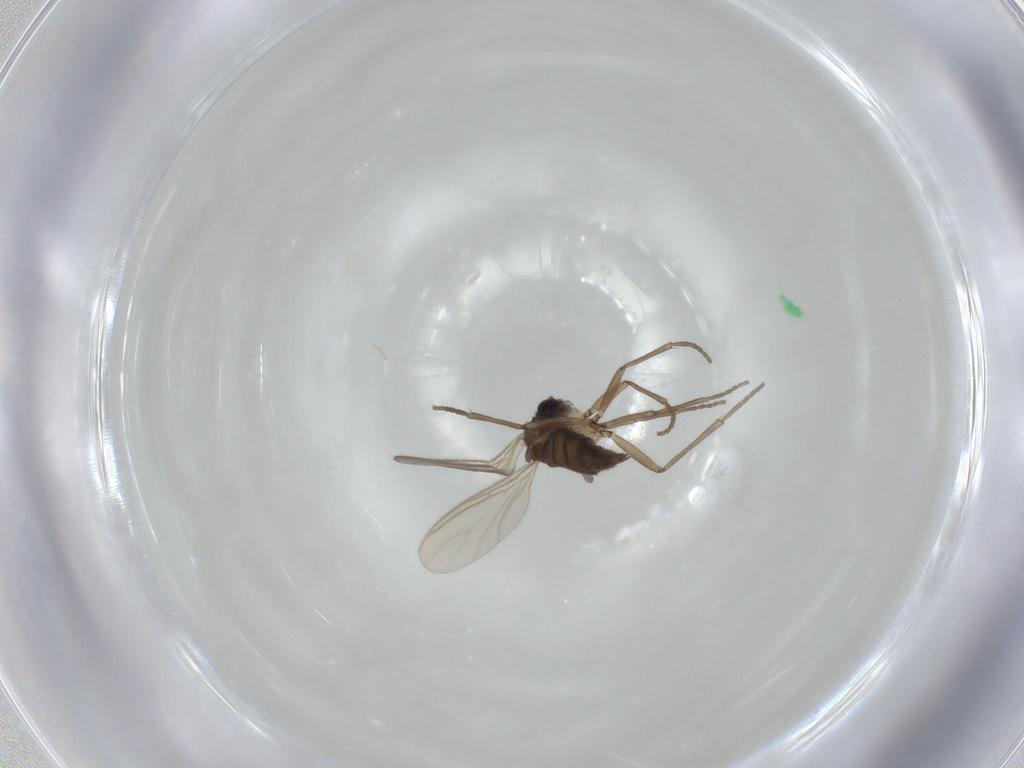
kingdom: Animalia
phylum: Arthropoda
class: Insecta
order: Diptera
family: Sciaridae
